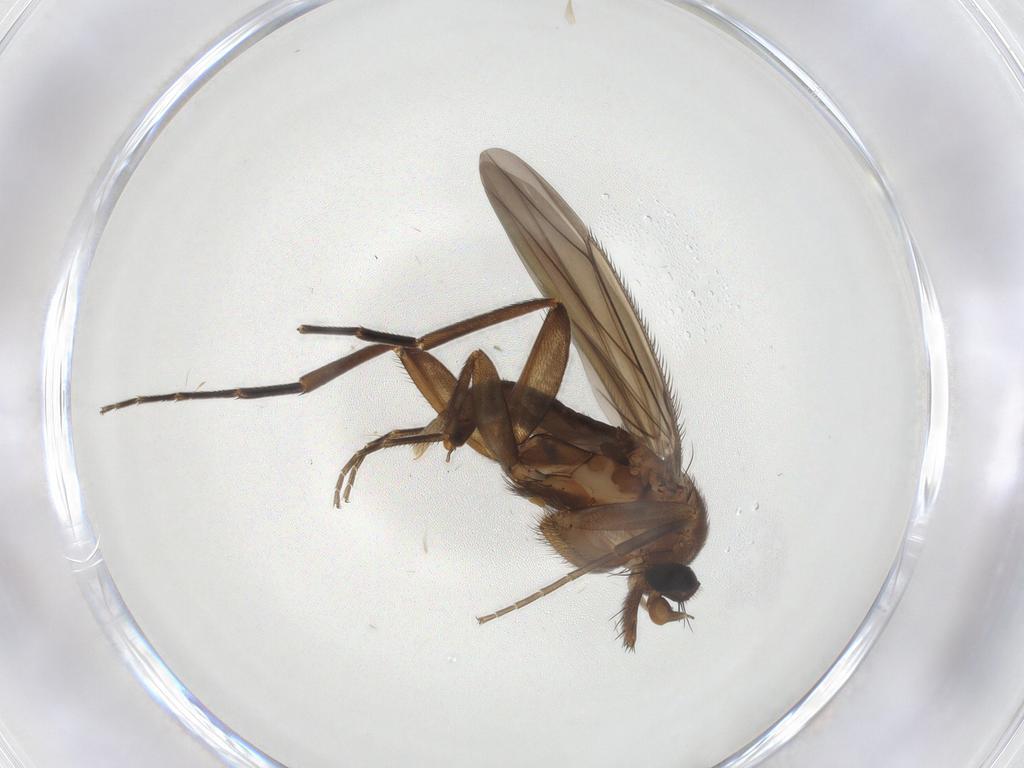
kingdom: Animalia
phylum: Arthropoda
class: Insecta
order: Diptera
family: Phoridae
